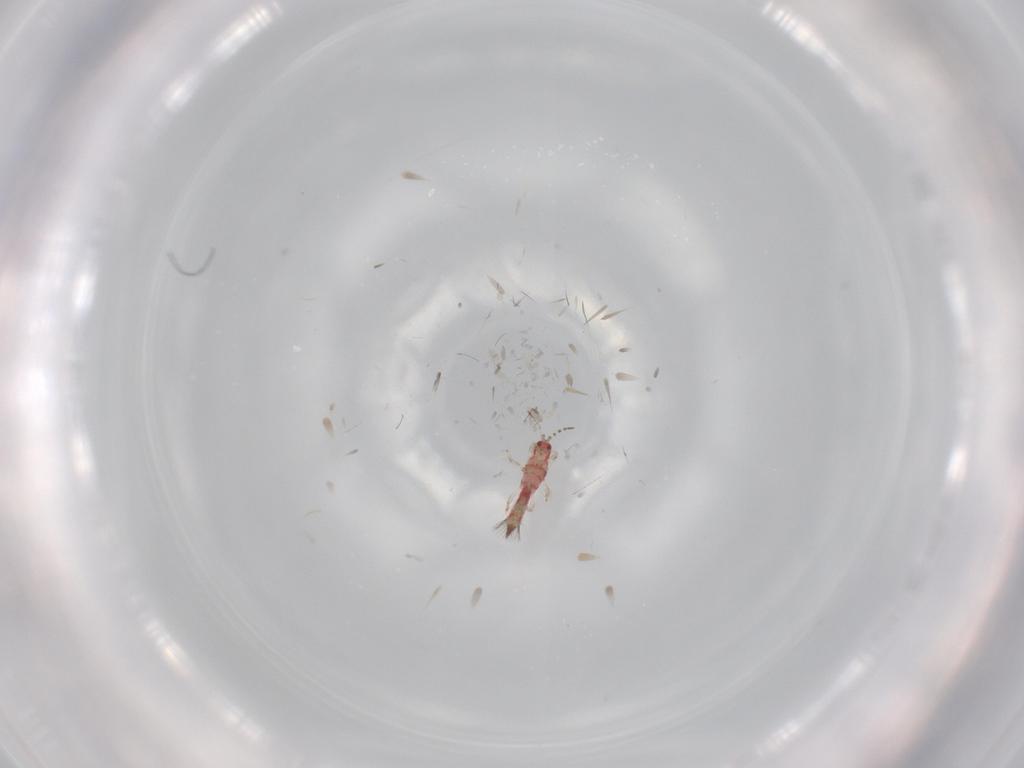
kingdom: Animalia
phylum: Arthropoda
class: Insecta
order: Thysanoptera
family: Phlaeothripidae
